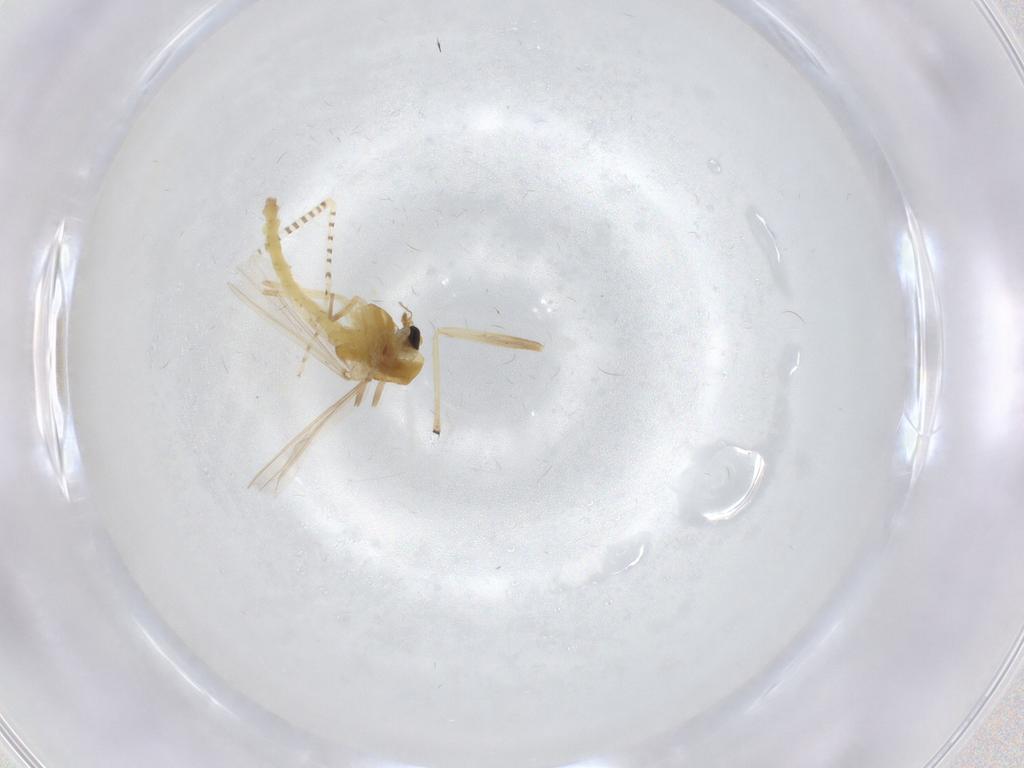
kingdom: Animalia
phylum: Arthropoda
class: Insecta
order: Diptera
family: Chironomidae
